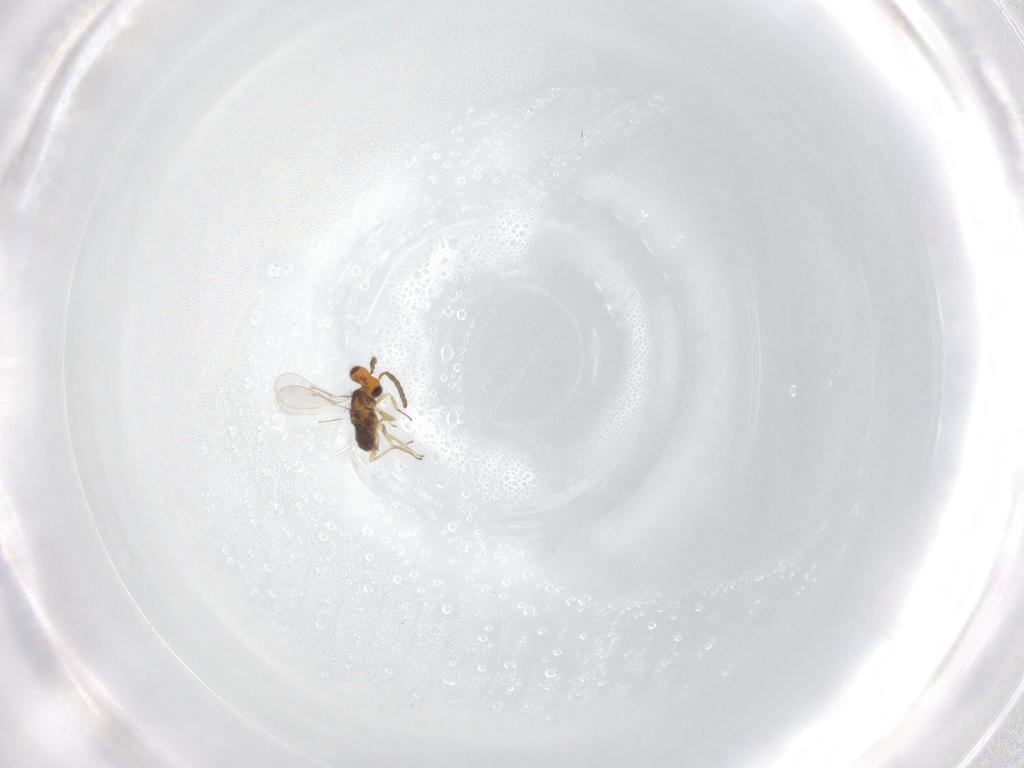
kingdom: Animalia
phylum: Arthropoda
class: Insecta
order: Hymenoptera
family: Aphelinidae
